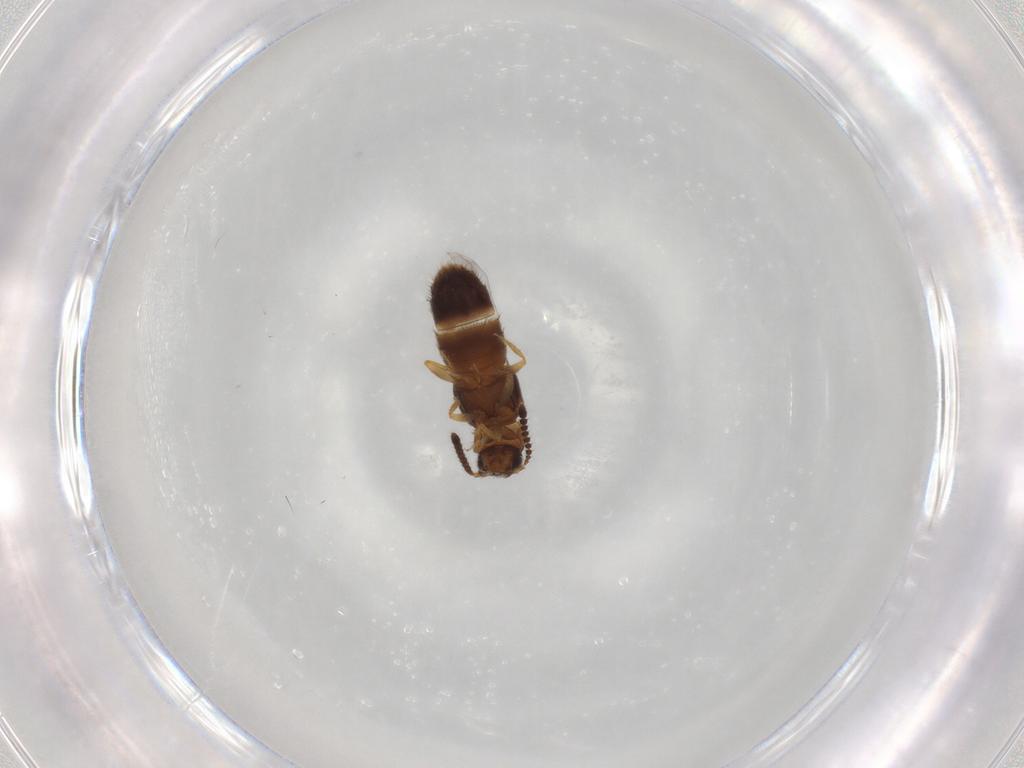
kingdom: Animalia
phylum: Arthropoda
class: Insecta
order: Coleoptera
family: Staphylinidae
